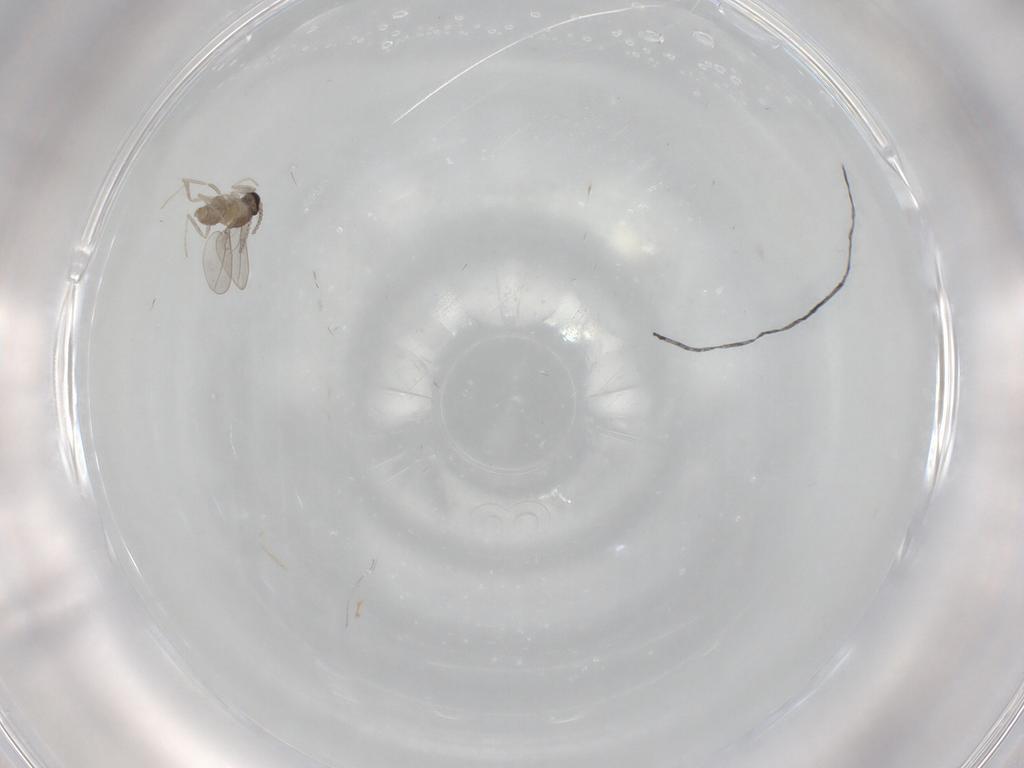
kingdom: Animalia
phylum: Arthropoda
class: Insecta
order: Diptera
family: Cecidomyiidae
